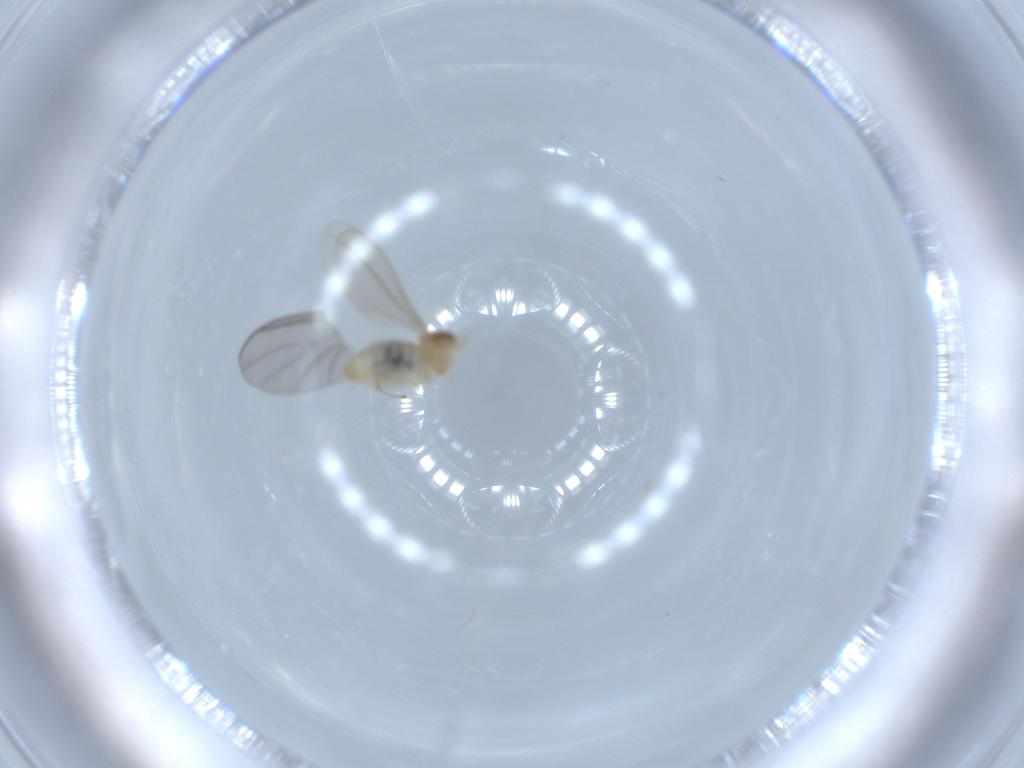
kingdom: Animalia
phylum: Arthropoda
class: Insecta
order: Diptera
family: Cecidomyiidae
